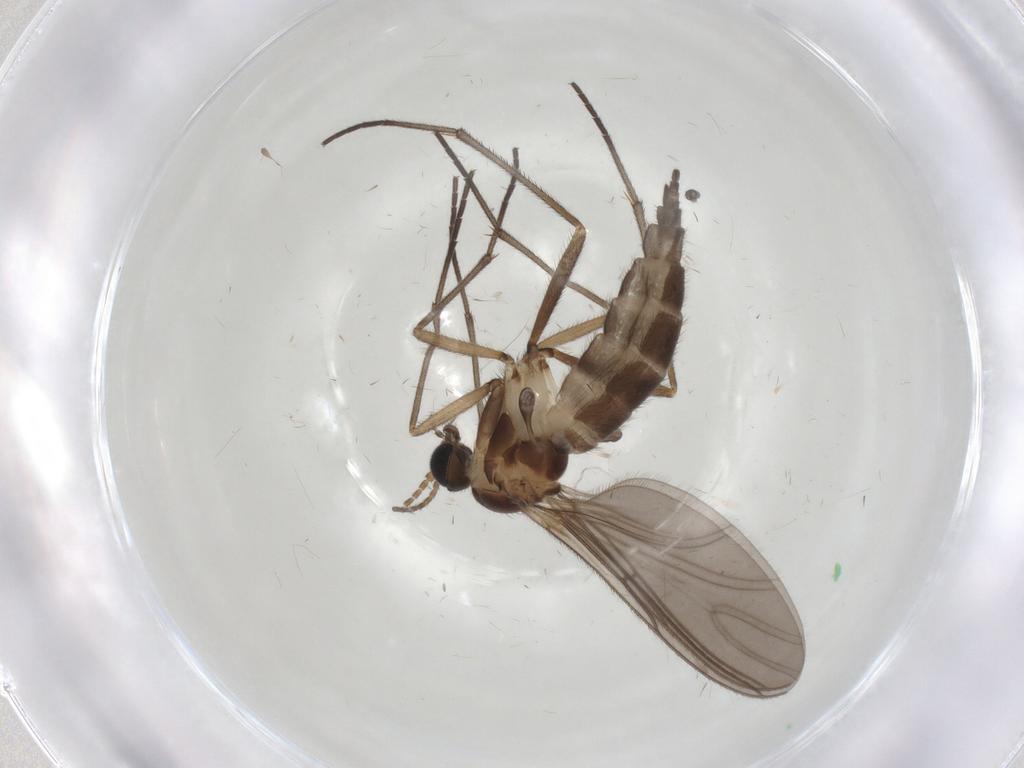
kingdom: Animalia
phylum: Arthropoda
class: Insecta
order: Diptera
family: Sciaridae
